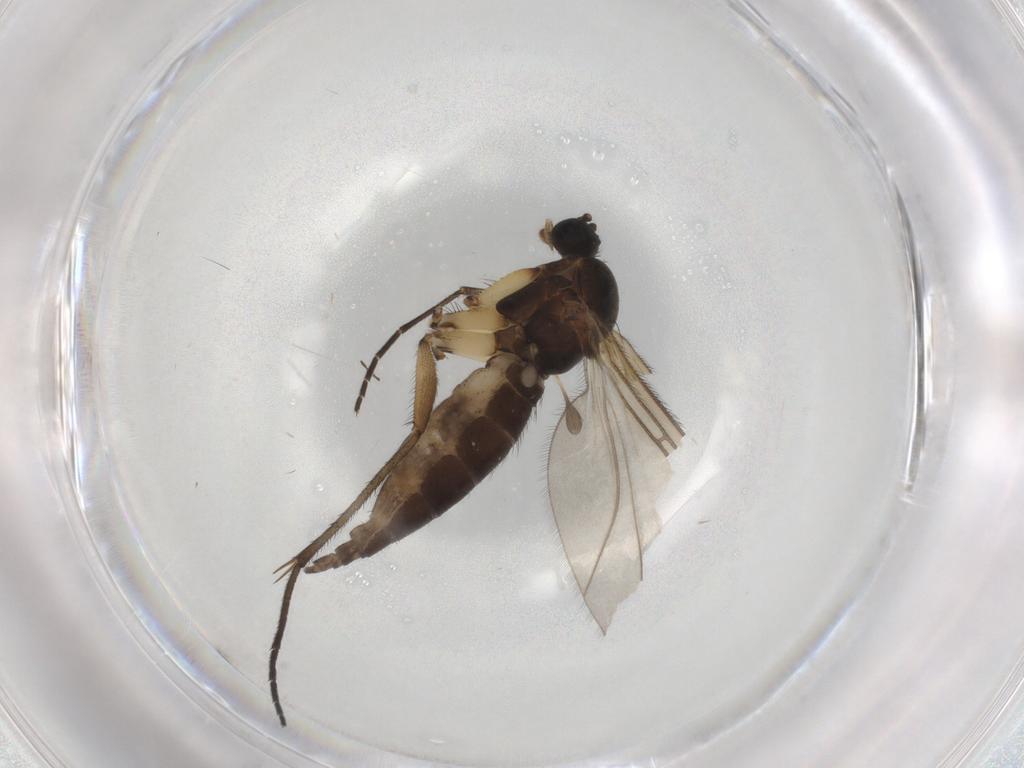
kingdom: Animalia
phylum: Arthropoda
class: Insecta
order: Diptera
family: Sciaridae
